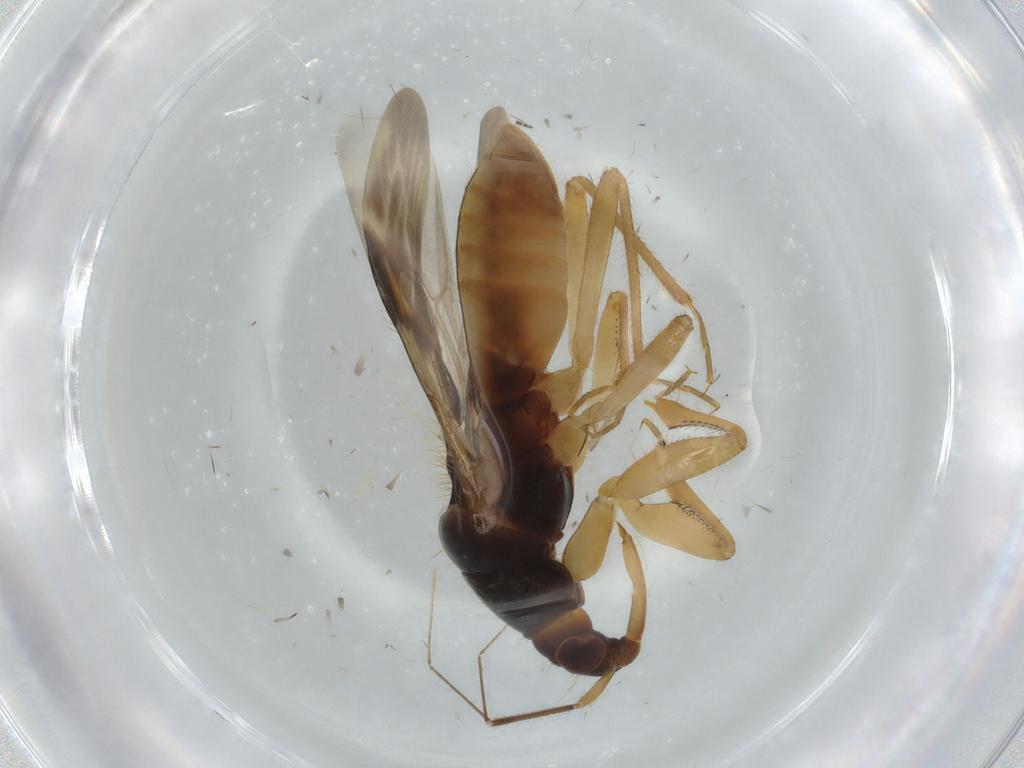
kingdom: Animalia
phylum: Arthropoda
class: Insecta
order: Hemiptera
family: Nabidae
